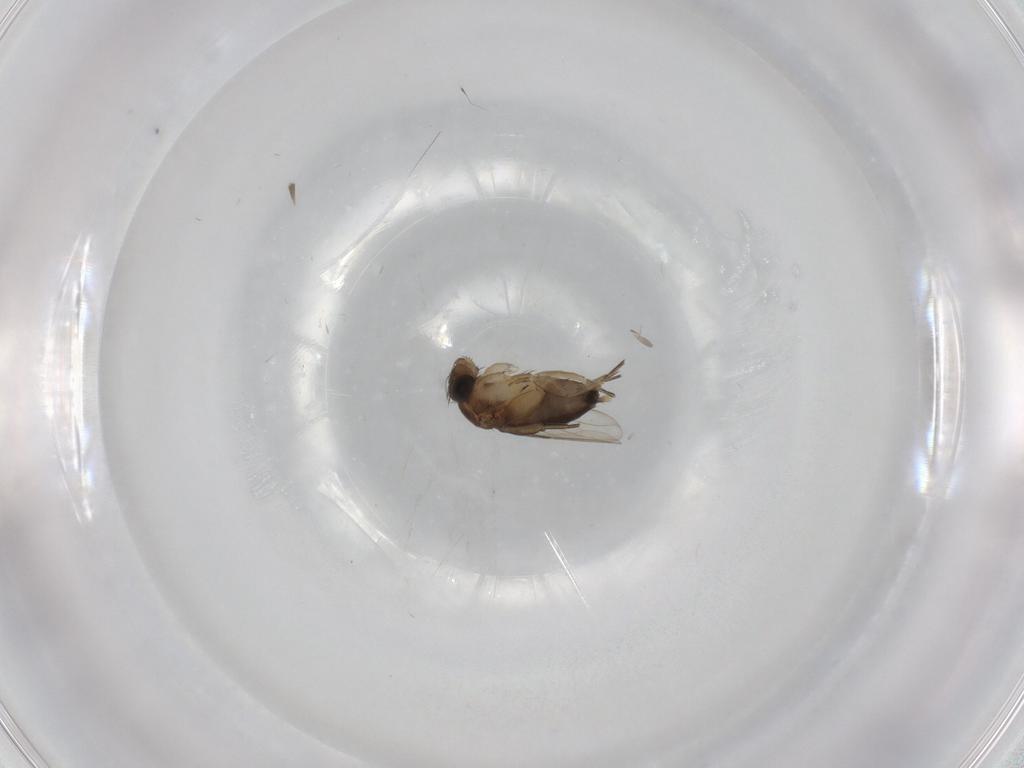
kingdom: Animalia
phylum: Arthropoda
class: Insecta
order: Diptera
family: Phoridae
